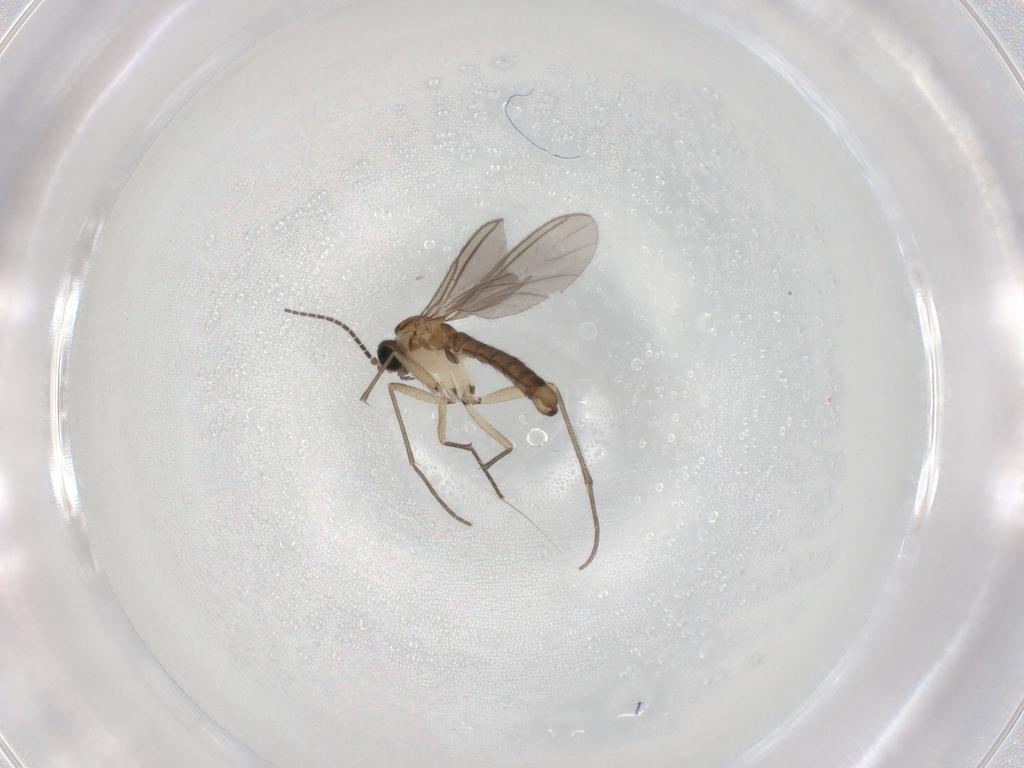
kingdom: Animalia
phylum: Arthropoda
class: Insecta
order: Diptera
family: Sciaridae
